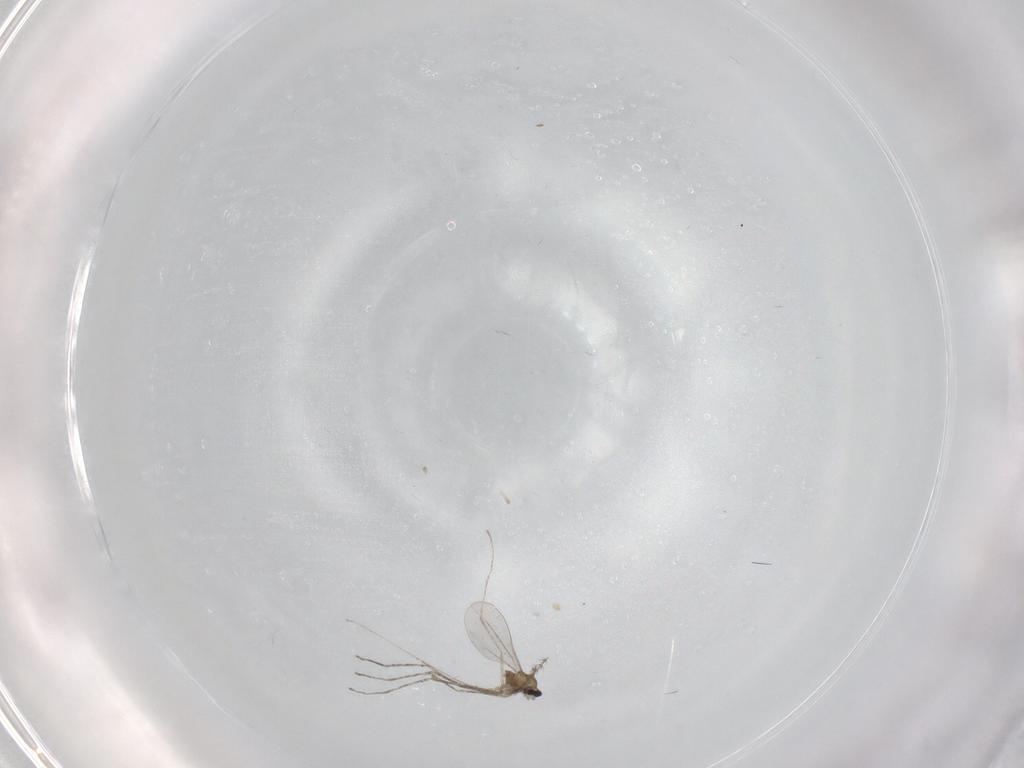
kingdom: Animalia
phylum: Arthropoda
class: Insecta
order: Diptera
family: Cecidomyiidae
